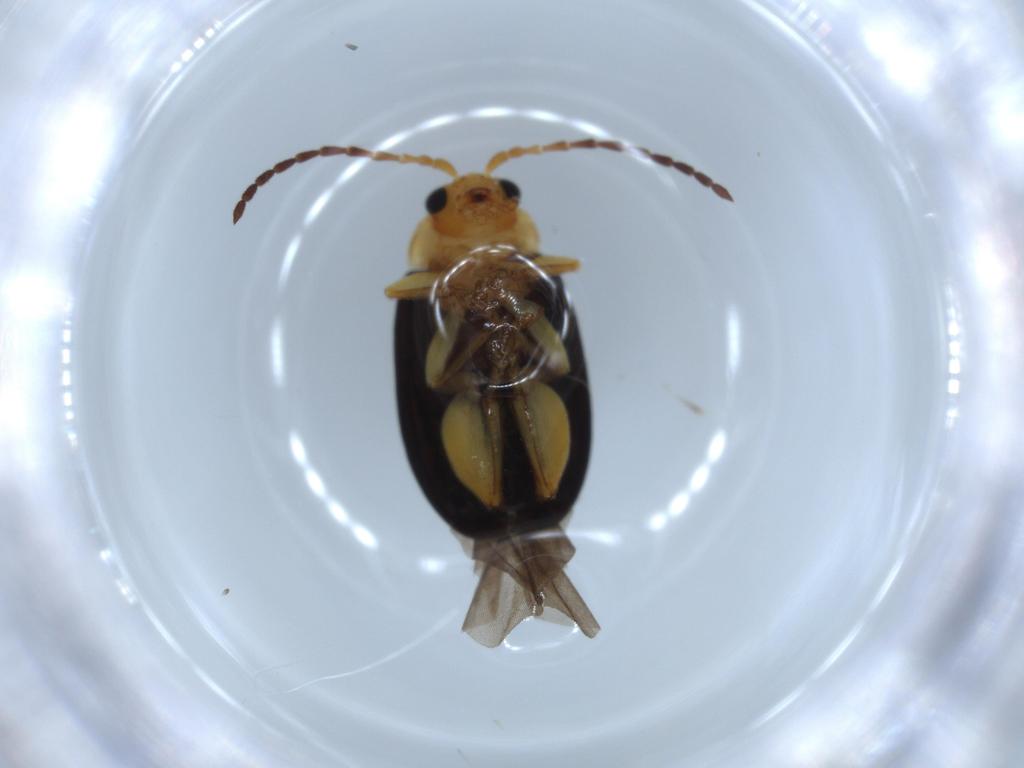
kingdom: Animalia
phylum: Arthropoda
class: Insecta
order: Coleoptera
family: Chrysomelidae
